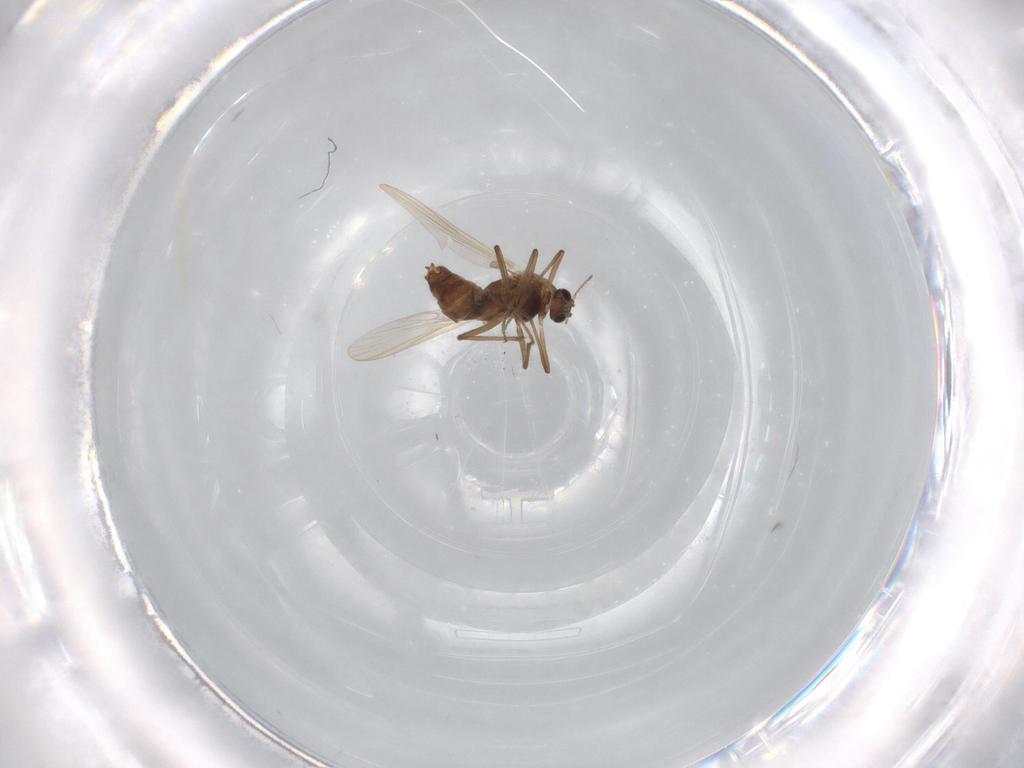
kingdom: Animalia
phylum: Arthropoda
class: Insecta
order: Diptera
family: Chironomidae
